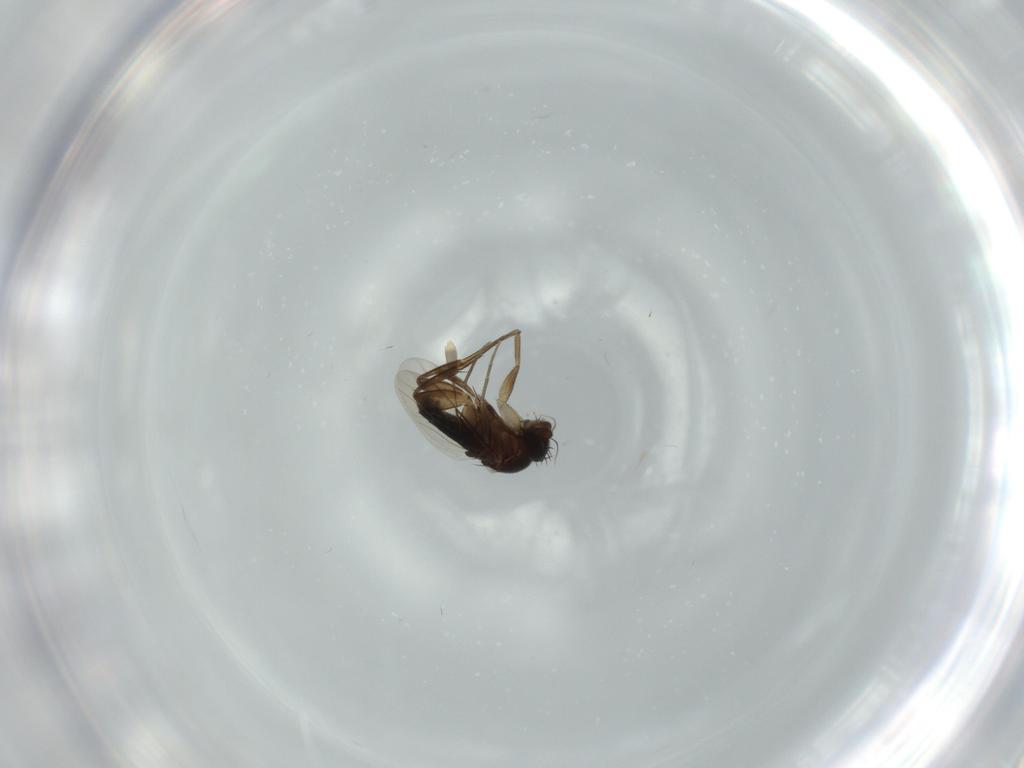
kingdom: Animalia
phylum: Arthropoda
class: Insecta
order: Diptera
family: Phoridae
